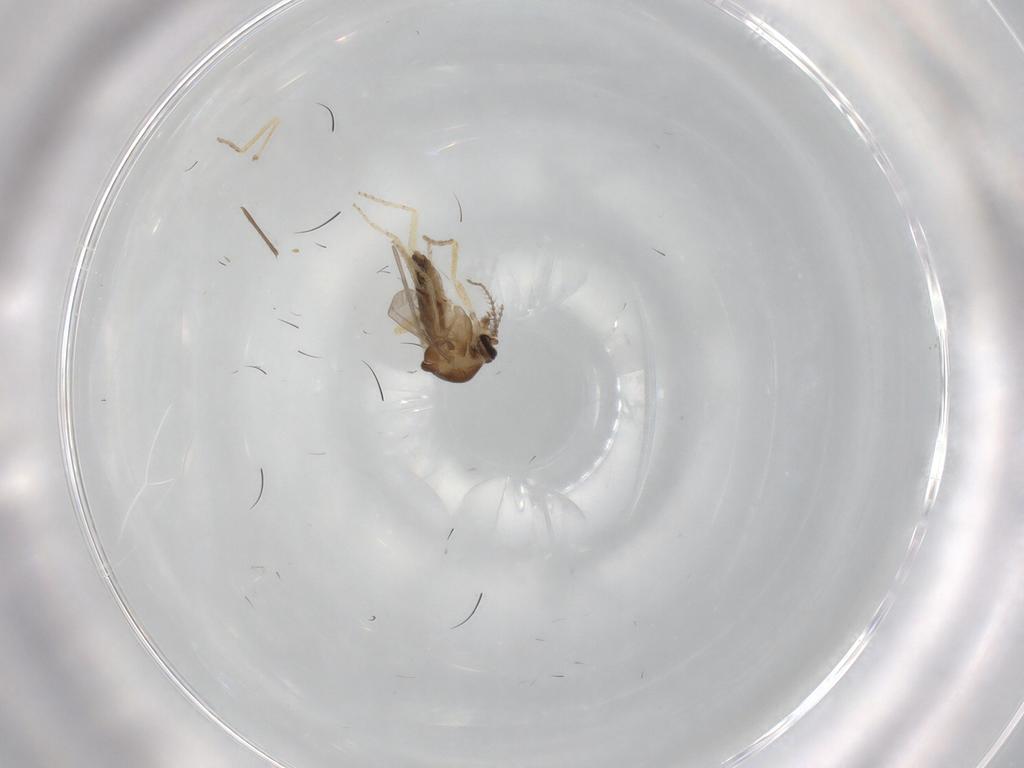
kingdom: Animalia
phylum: Arthropoda
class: Insecta
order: Diptera
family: Ceratopogonidae
